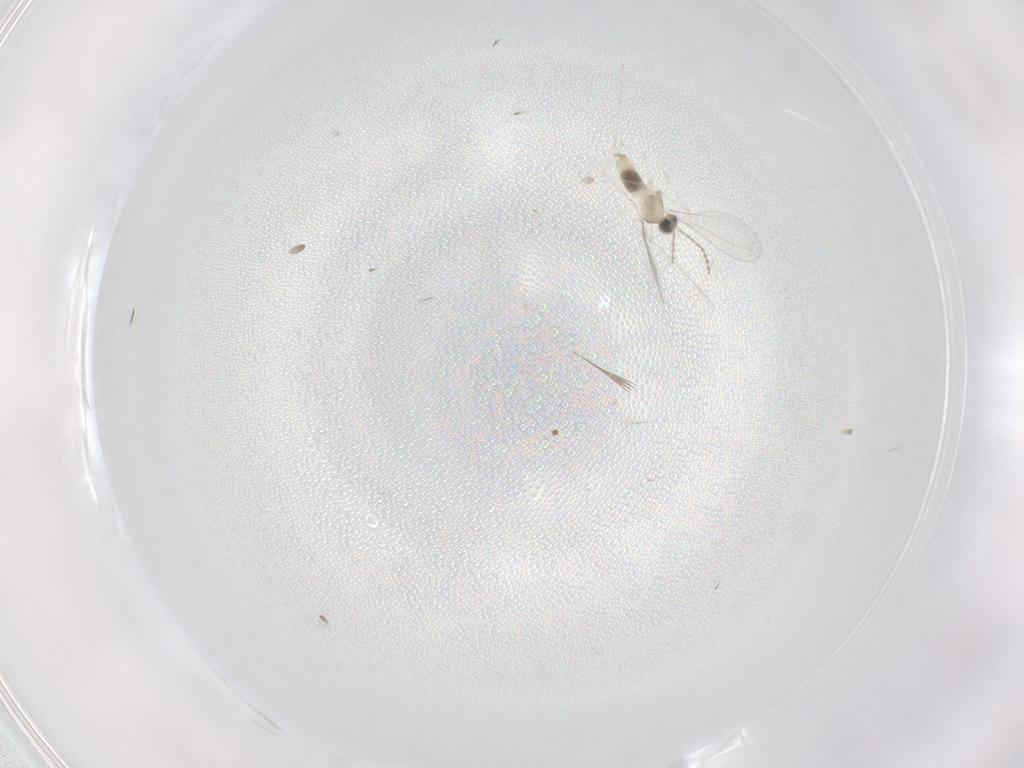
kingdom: Animalia
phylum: Arthropoda
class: Insecta
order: Diptera
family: Cecidomyiidae
